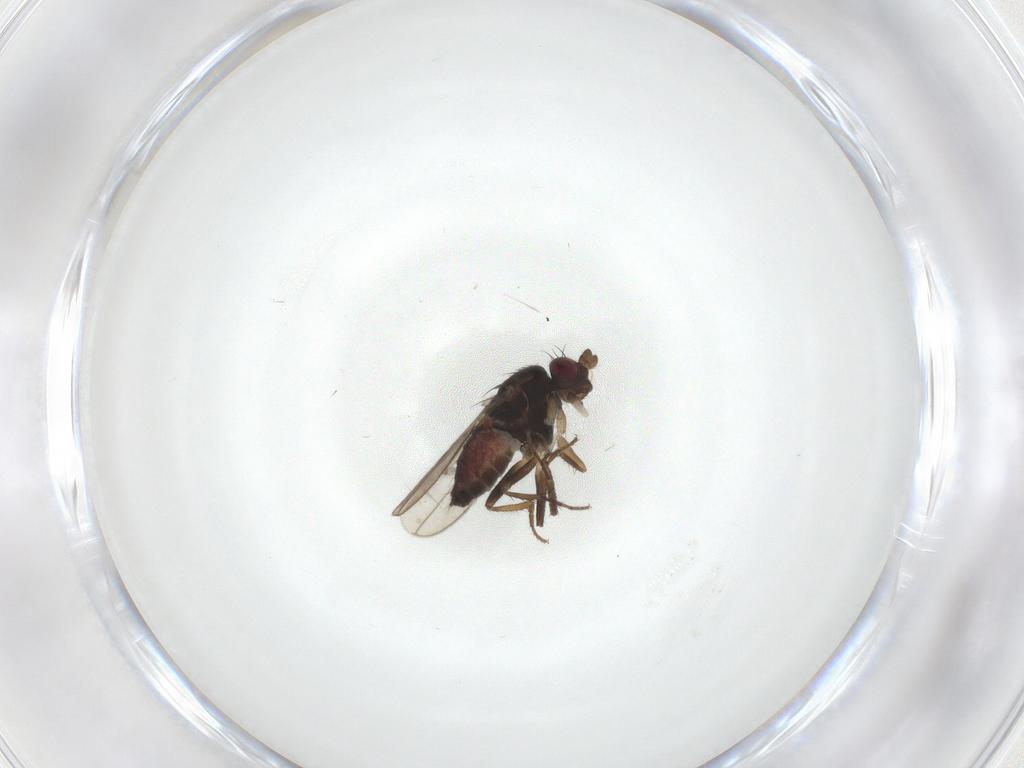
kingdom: Animalia
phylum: Arthropoda
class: Insecta
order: Diptera
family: Sphaeroceridae
